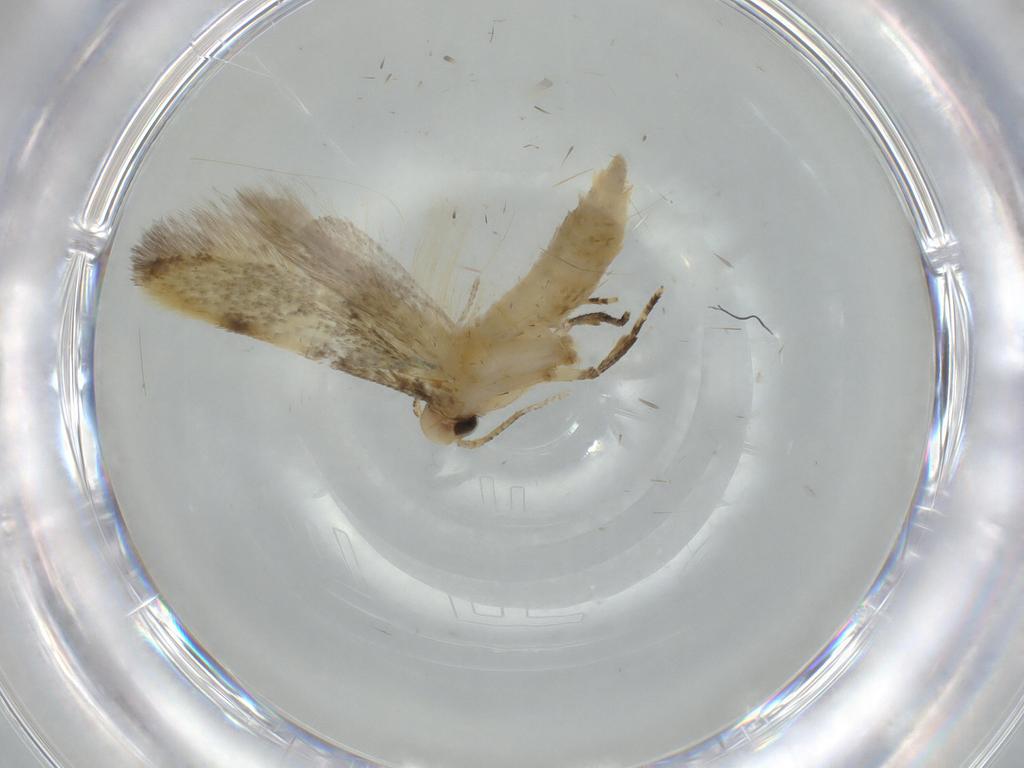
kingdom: Animalia
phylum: Arthropoda
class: Insecta
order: Lepidoptera
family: Autostichidae
